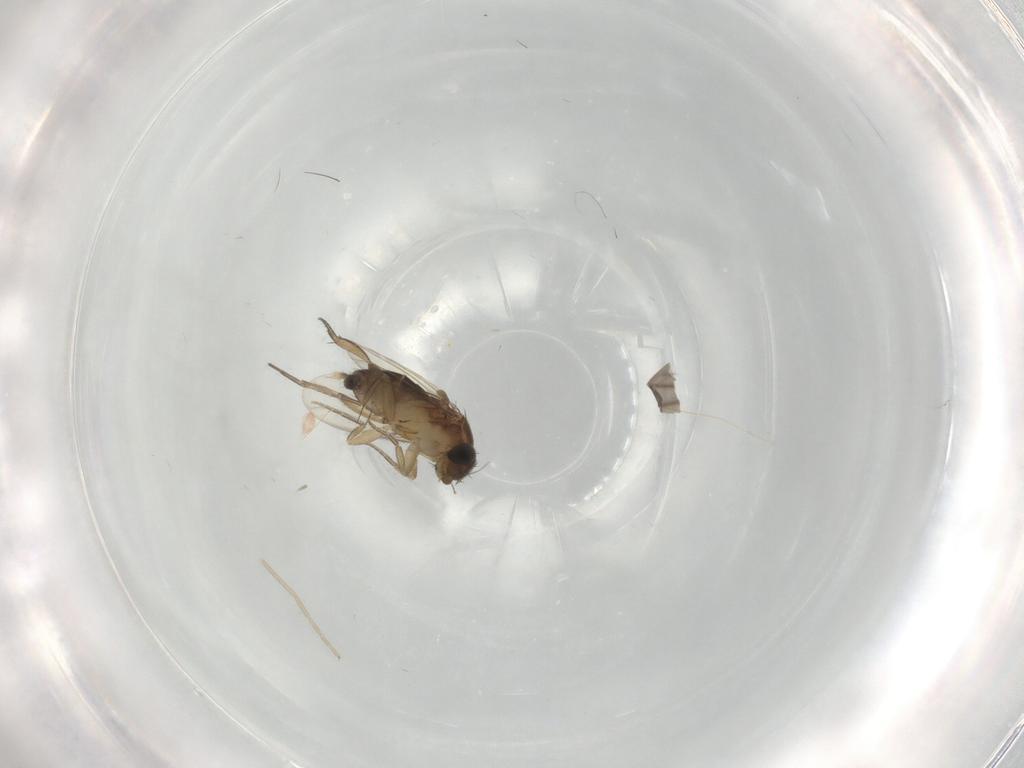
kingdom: Animalia
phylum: Arthropoda
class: Insecta
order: Diptera
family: Phoridae
